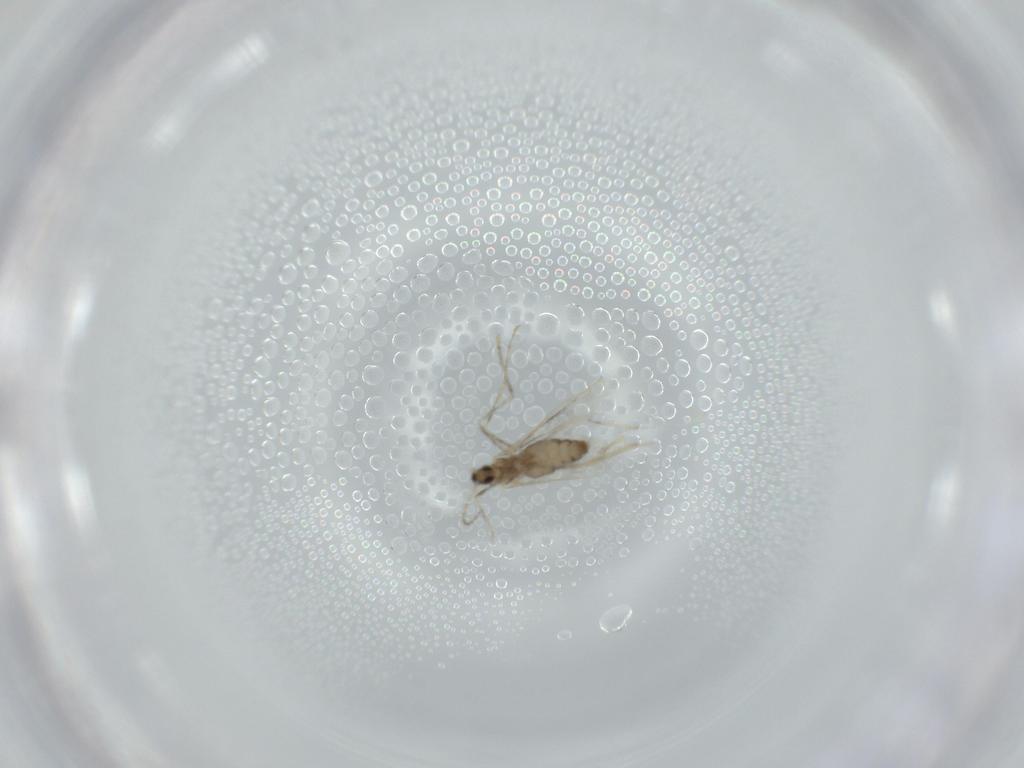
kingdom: Animalia
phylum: Arthropoda
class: Insecta
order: Diptera
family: Cecidomyiidae
